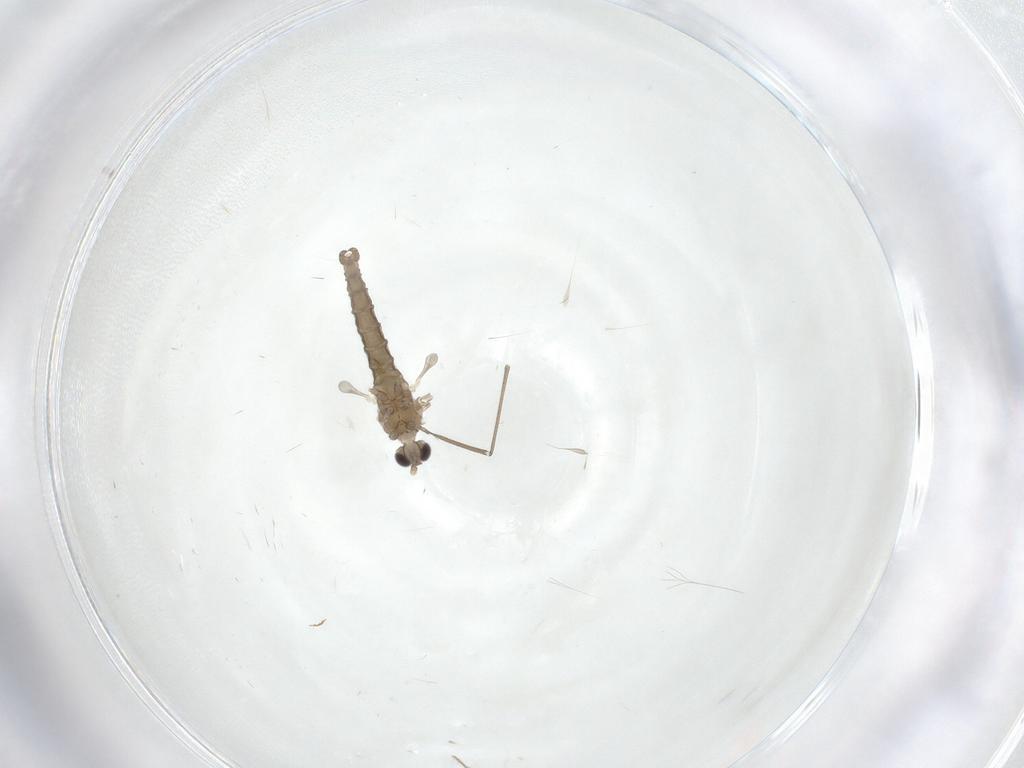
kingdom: Animalia
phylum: Arthropoda
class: Insecta
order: Diptera
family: Cecidomyiidae
